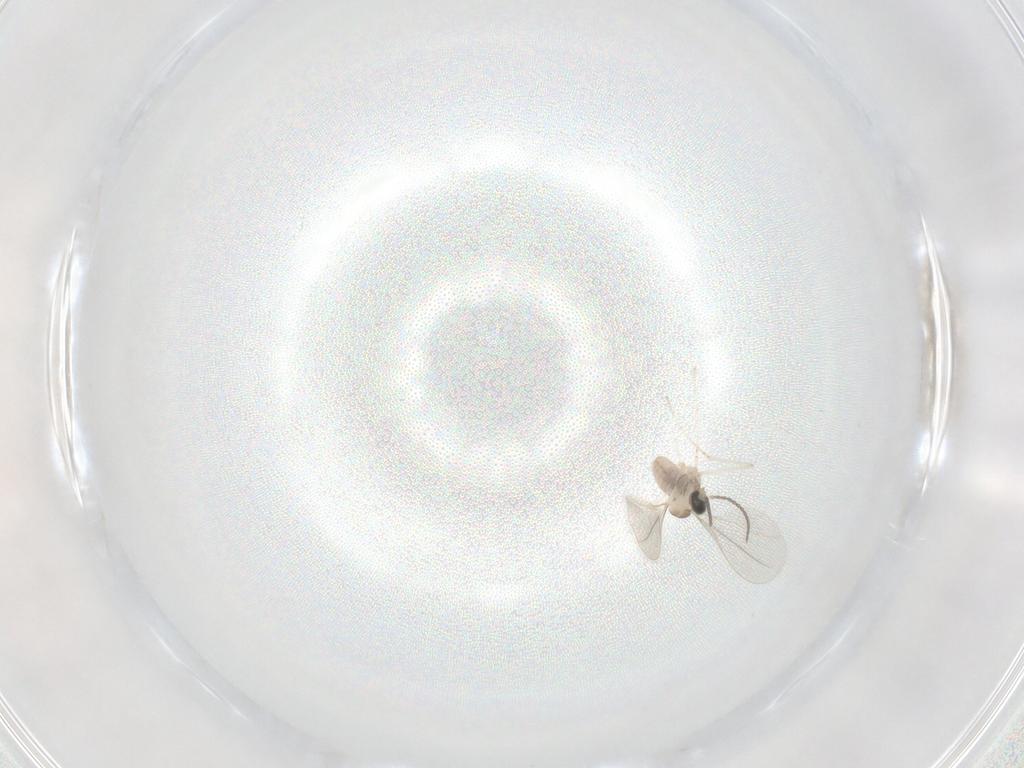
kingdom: Animalia
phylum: Arthropoda
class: Insecta
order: Diptera
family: Cecidomyiidae
